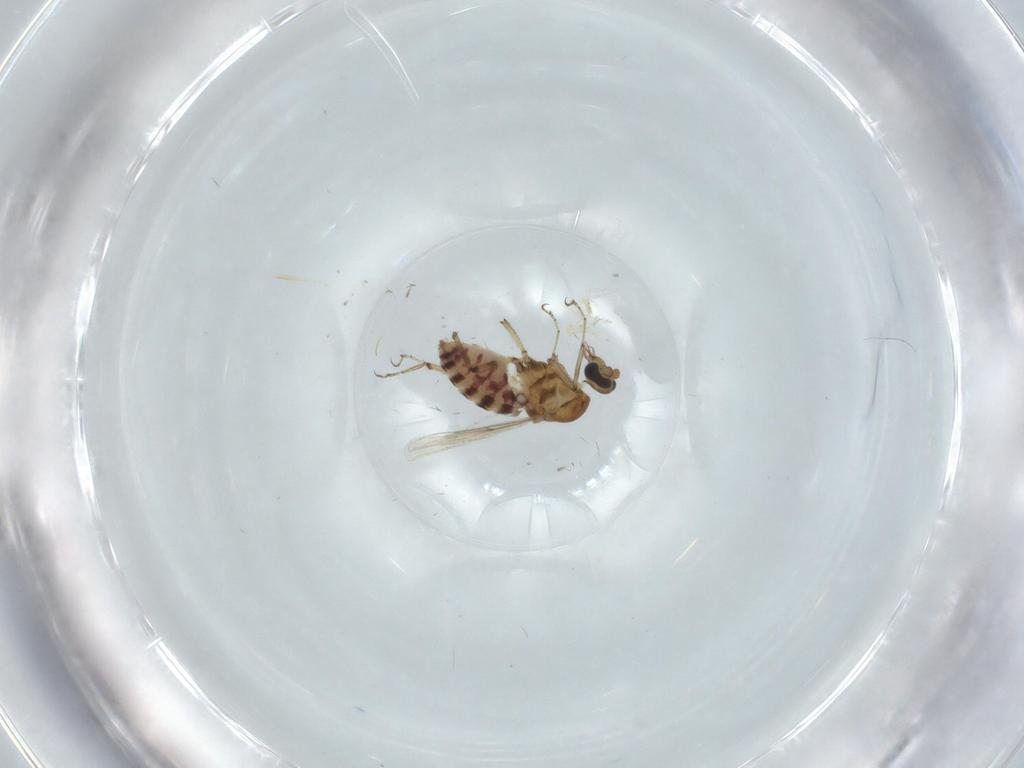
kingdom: Animalia
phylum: Arthropoda
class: Insecta
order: Diptera
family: Ceratopogonidae
